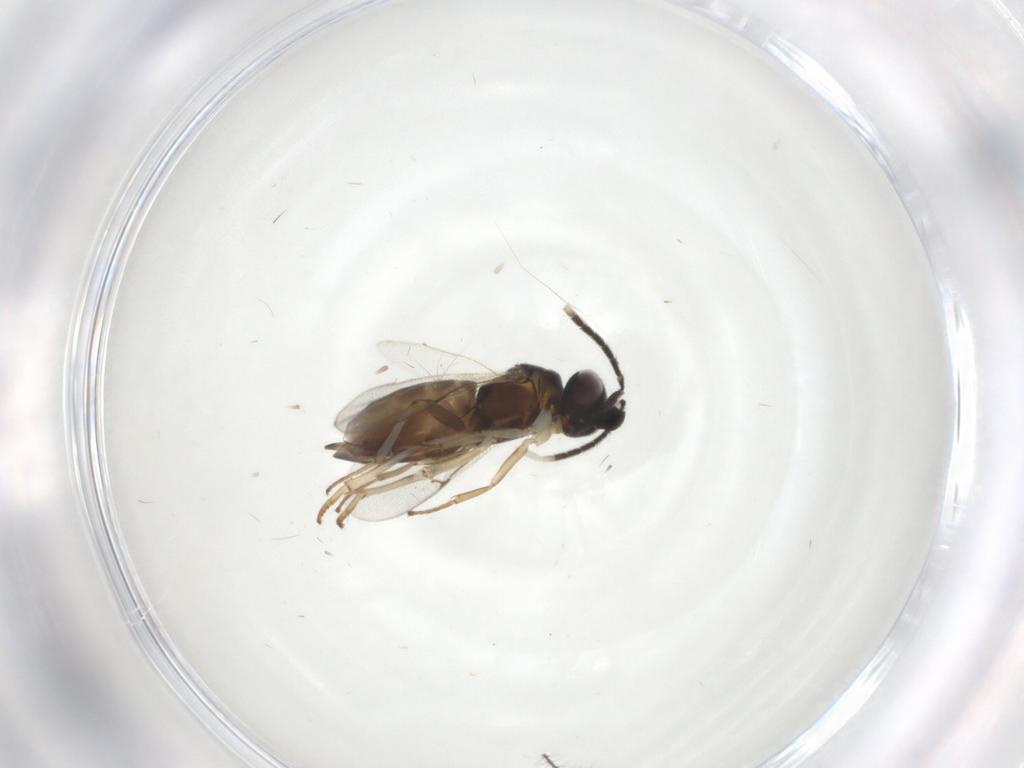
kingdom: Animalia
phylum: Arthropoda
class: Insecta
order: Hymenoptera
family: Encyrtidae
